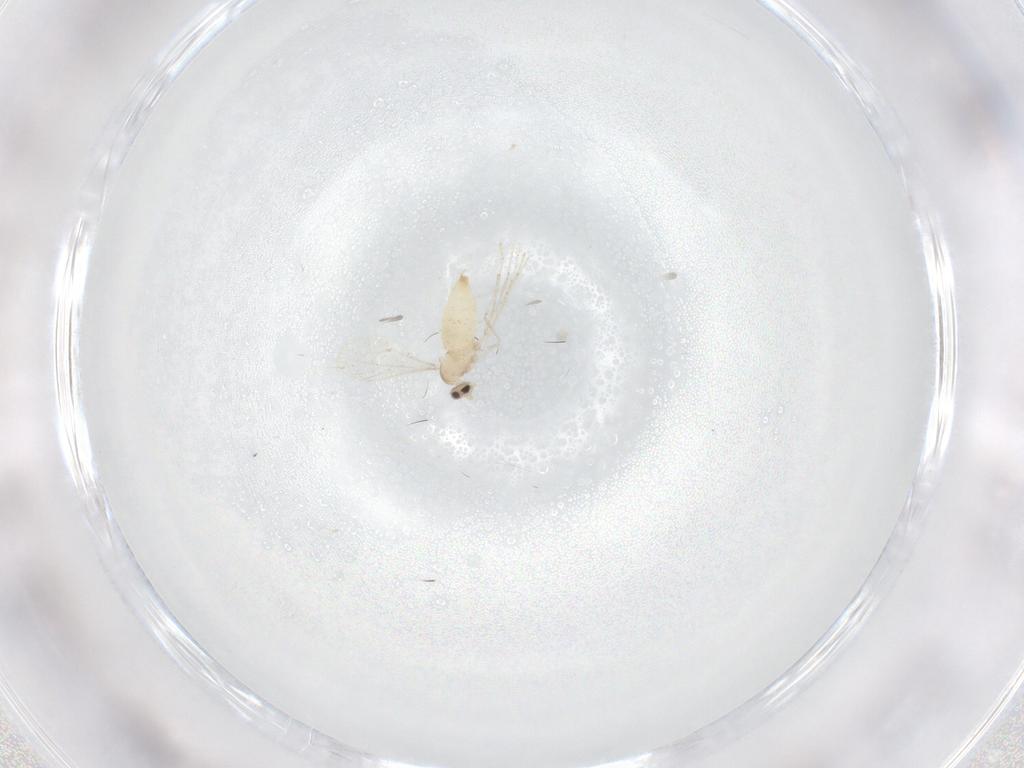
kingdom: Animalia
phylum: Arthropoda
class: Insecta
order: Diptera
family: Cecidomyiidae
